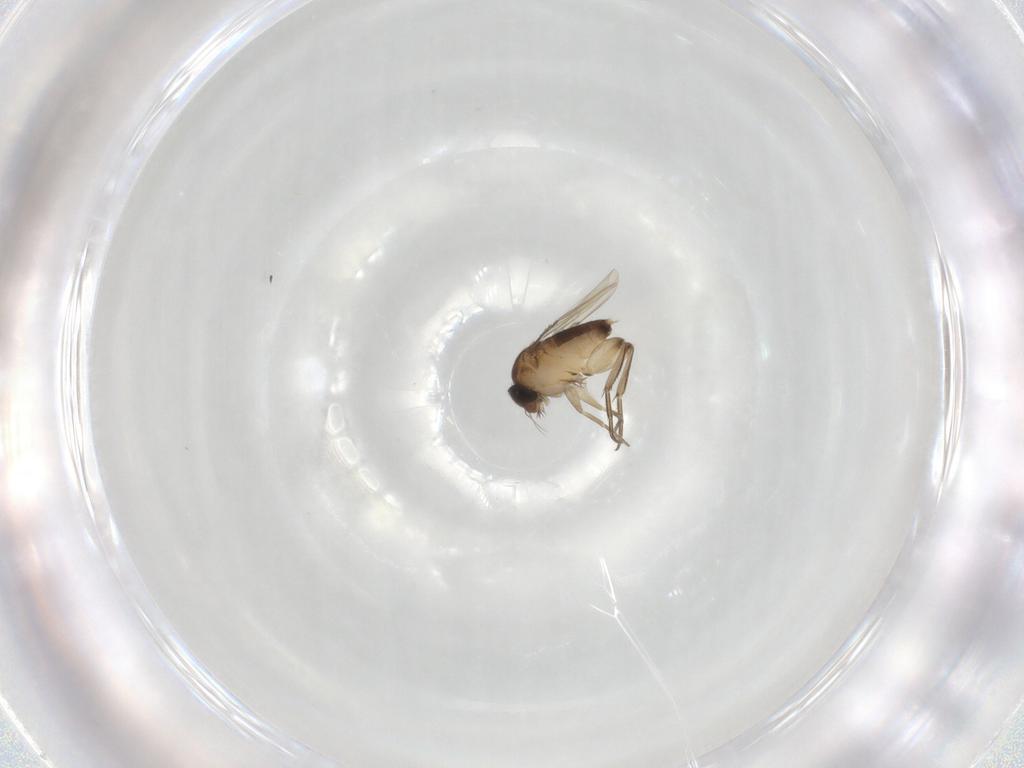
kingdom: Animalia
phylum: Arthropoda
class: Insecta
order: Diptera
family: Phoridae
